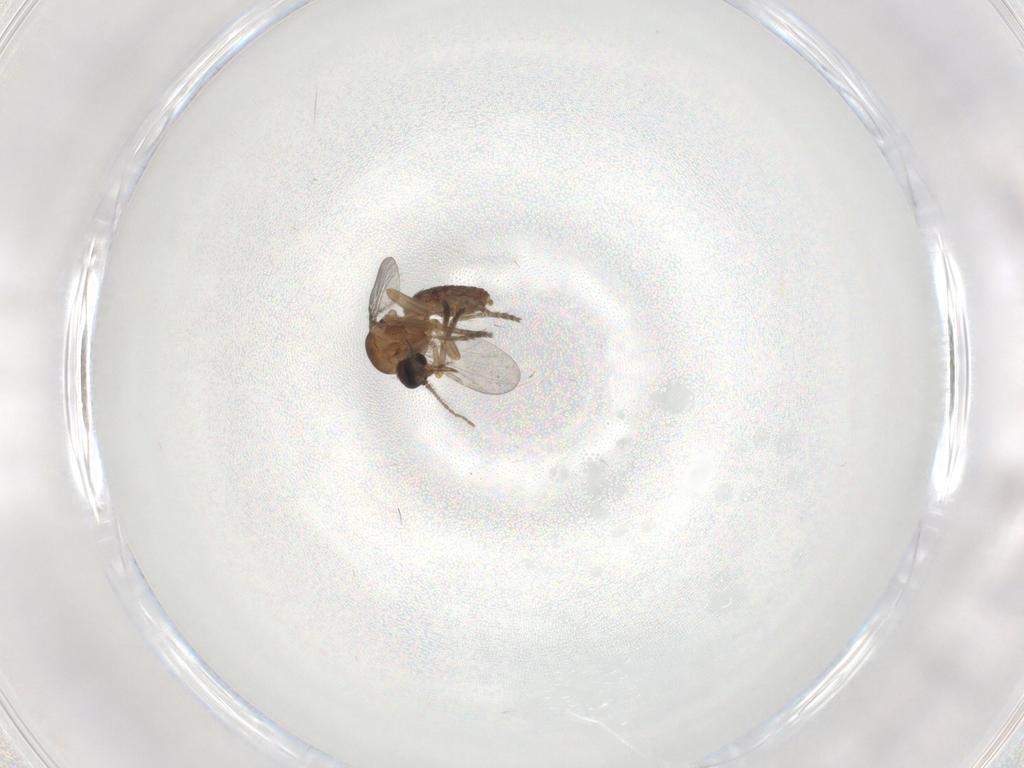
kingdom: Animalia
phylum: Arthropoda
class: Insecta
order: Diptera
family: Ceratopogonidae
